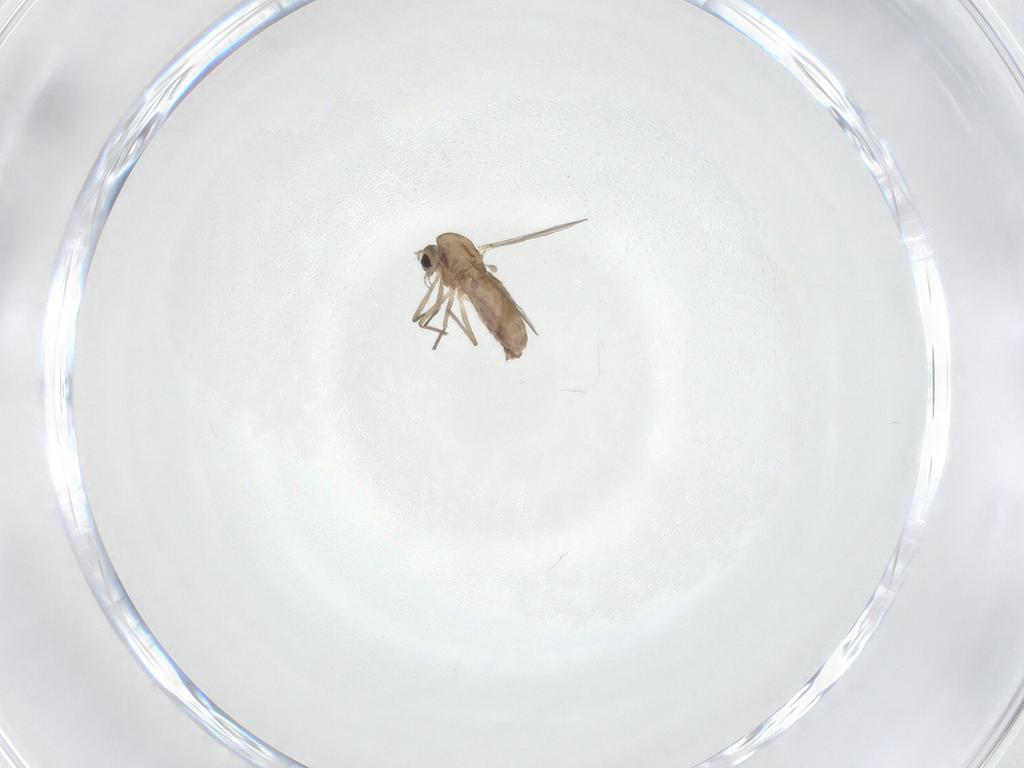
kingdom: Animalia
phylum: Arthropoda
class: Insecta
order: Diptera
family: Chironomidae
